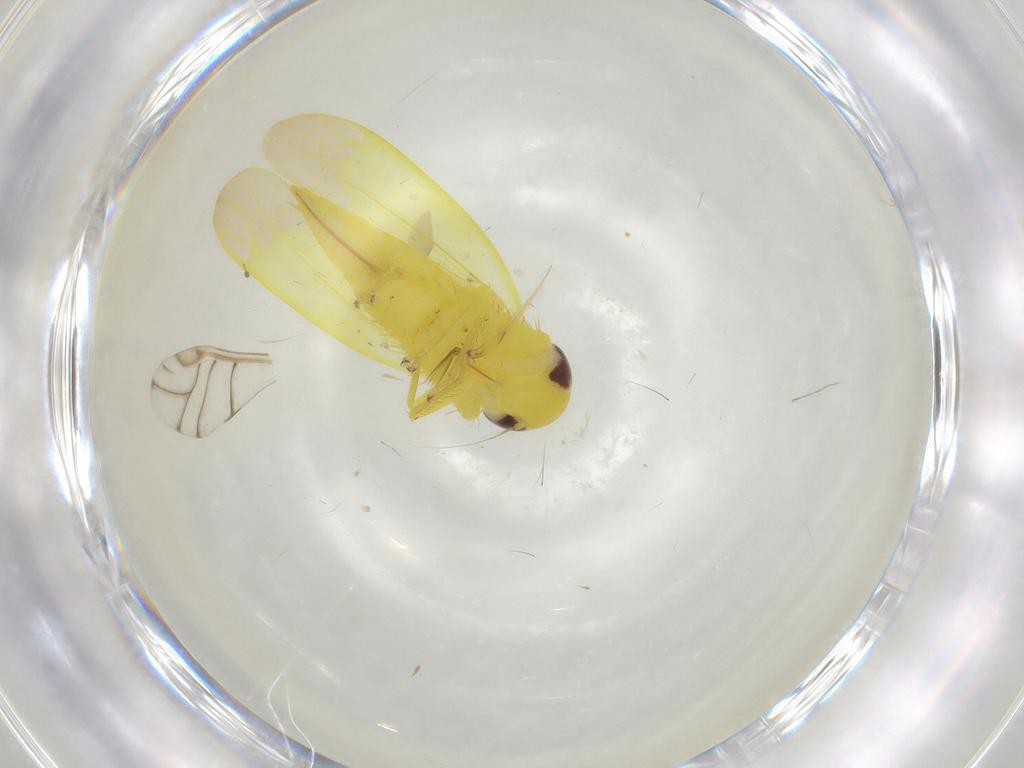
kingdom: Animalia
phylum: Arthropoda
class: Insecta
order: Hemiptera
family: Cicadellidae
